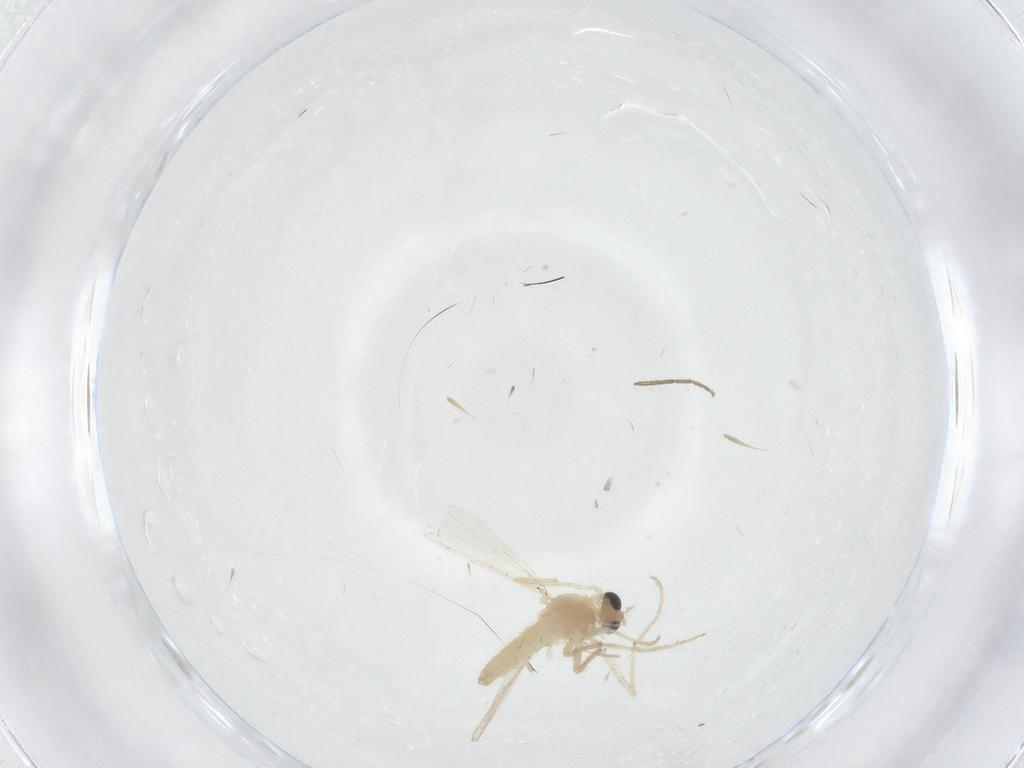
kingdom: Animalia
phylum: Arthropoda
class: Insecta
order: Diptera
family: Chironomidae
